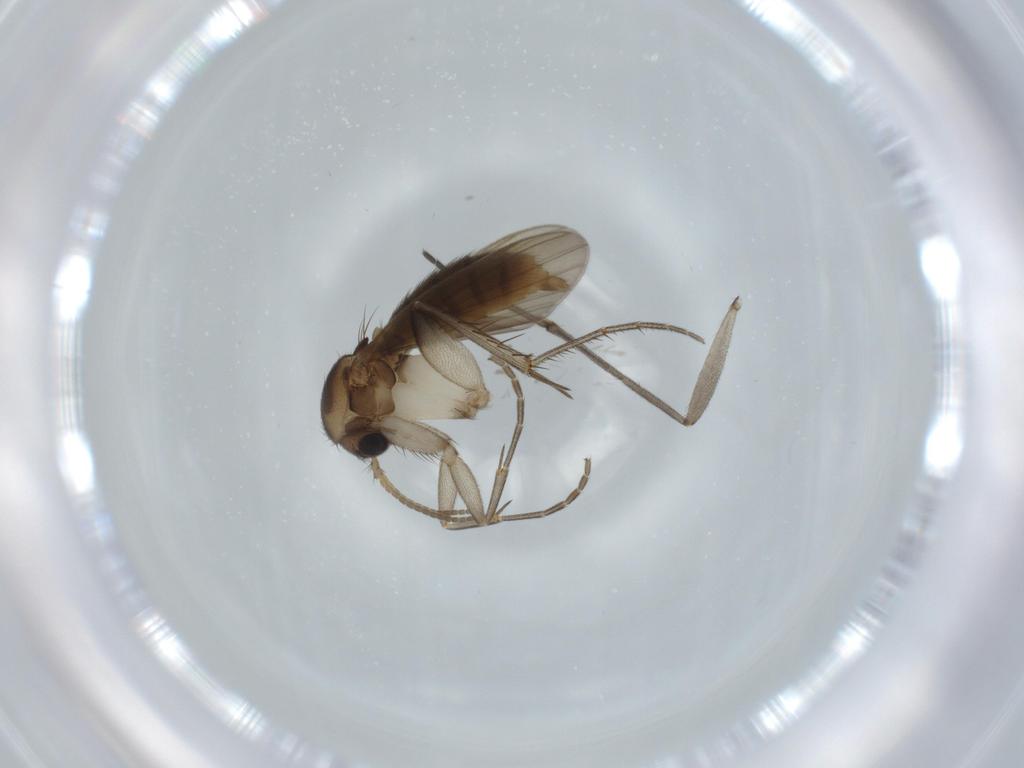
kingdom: Animalia
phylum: Arthropoda
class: Insecta
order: Diptera
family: Mycetophilidae
